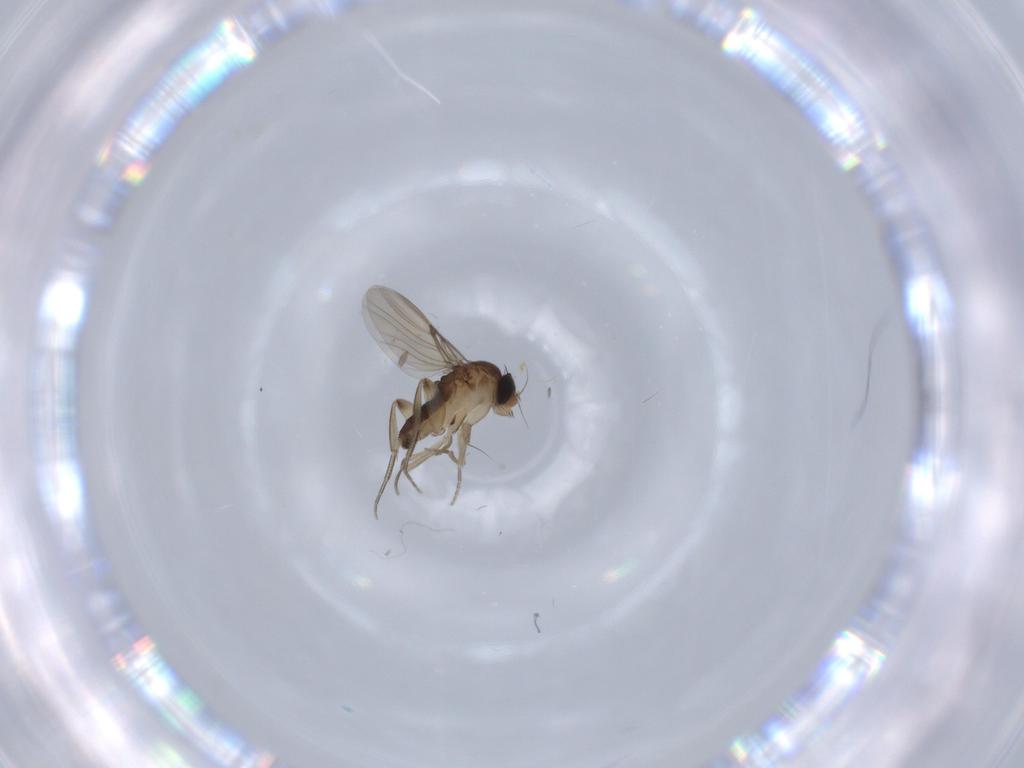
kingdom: Animalia
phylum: Arthropoda
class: Insecta
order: Diptera
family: Phoridae
